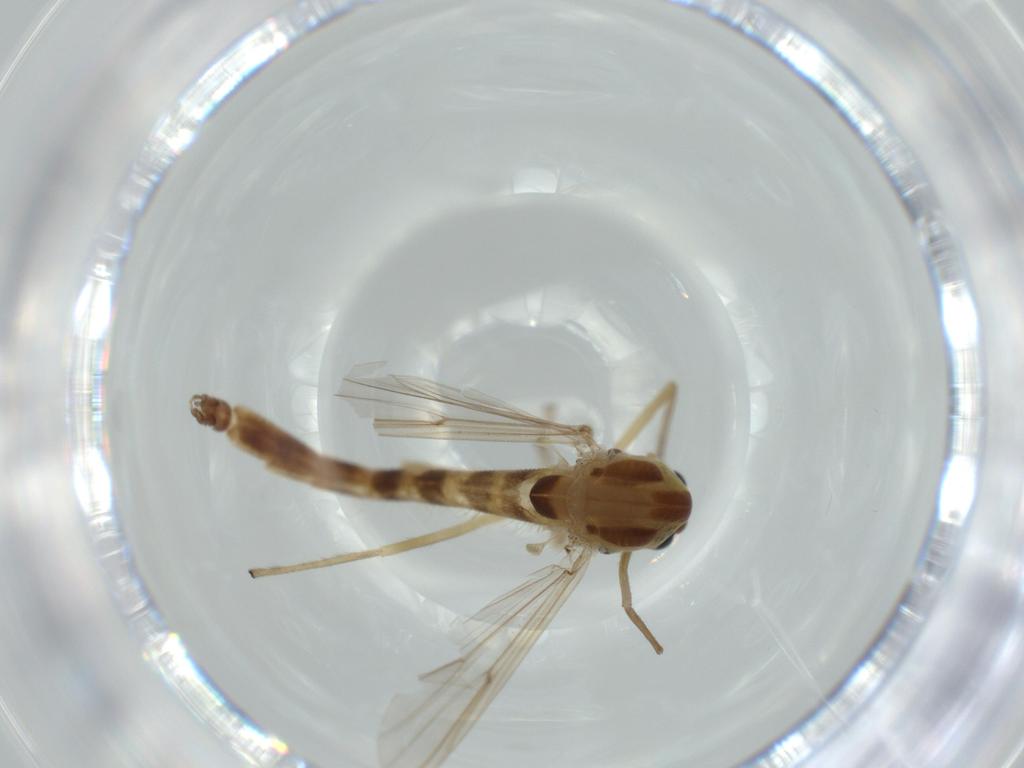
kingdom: Animalia
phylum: Arthropoda
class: Insecta
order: Diptera
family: Chironomidae
